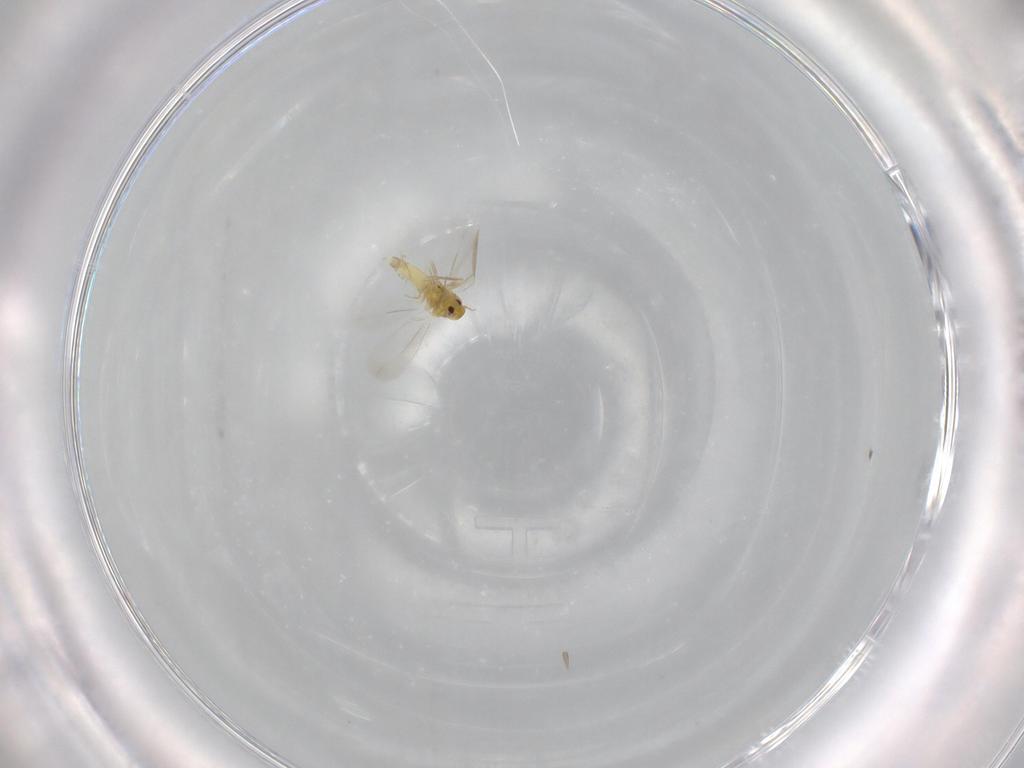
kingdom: Animalia
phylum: Arthropoda
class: Insecta
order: Hemiptera
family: Aleyrodidae
